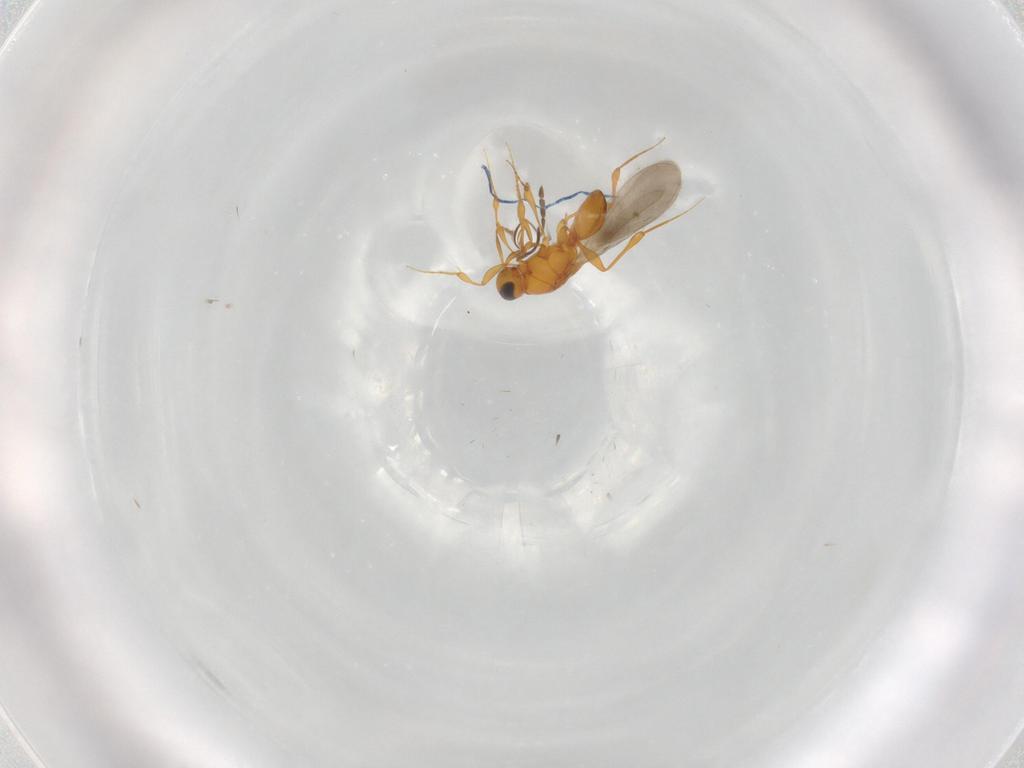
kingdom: Animalia
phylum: Arthropoda
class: Insecta
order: Hymenoptera
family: Platygastridae
